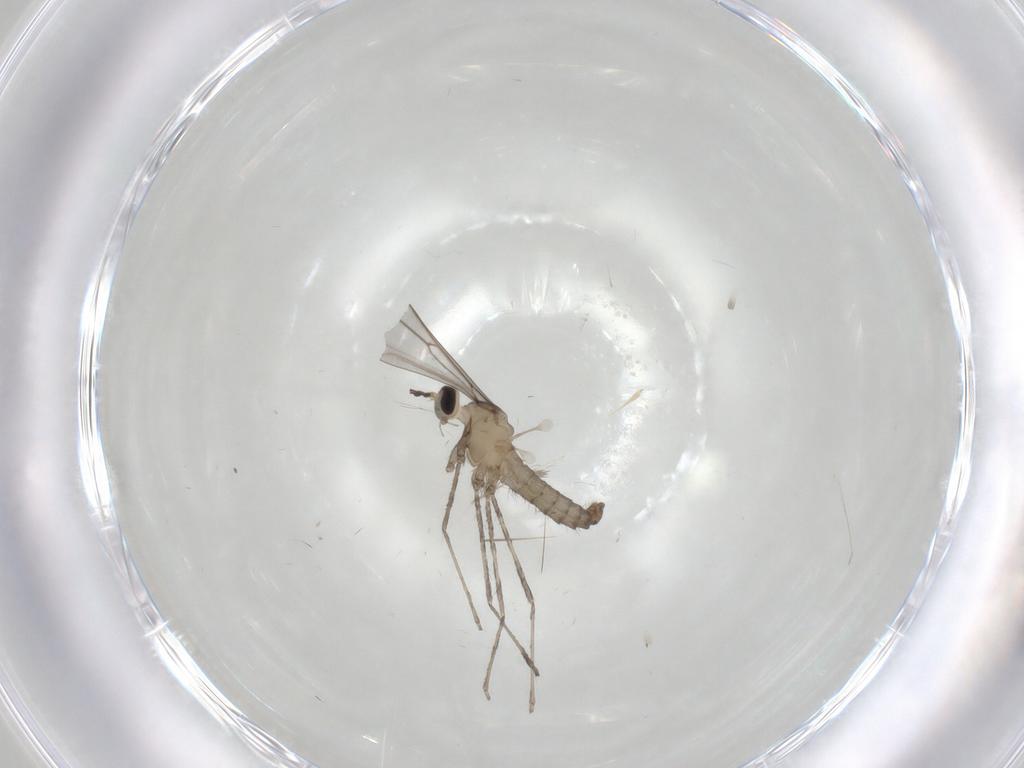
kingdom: Animalia
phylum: Arthropoda
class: Insecta
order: Diptera
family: Cecidomyiidae
